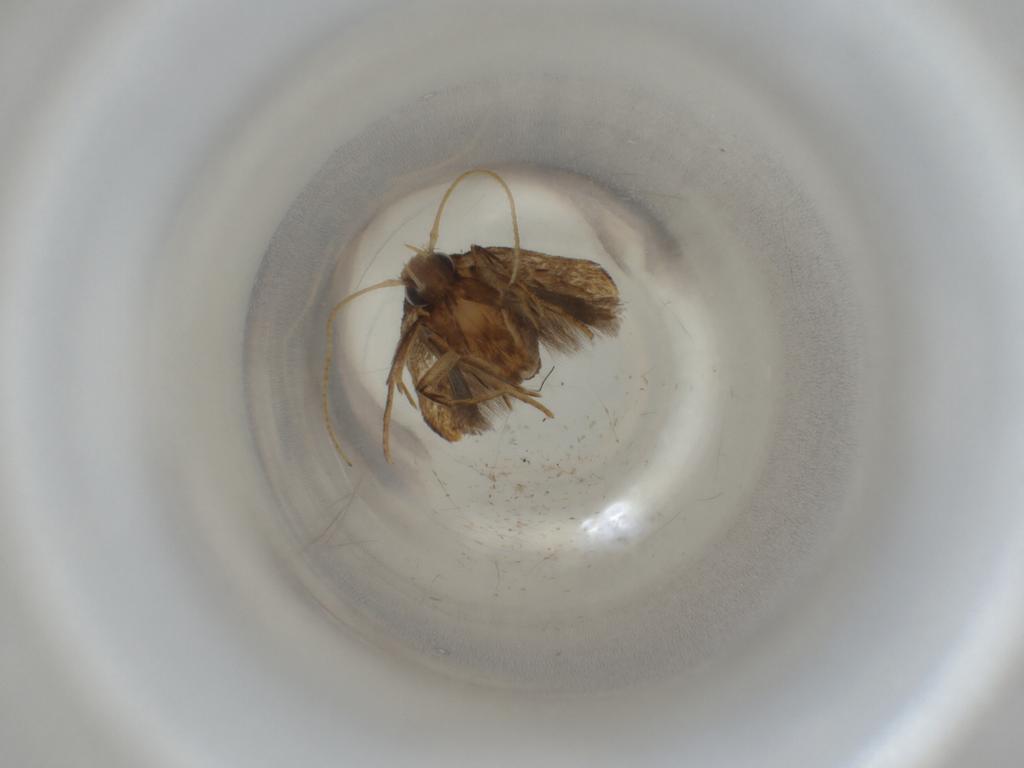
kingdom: Animalia
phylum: Arthropoda
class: Insecta
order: Lepidoptera
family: Gelechiidae
